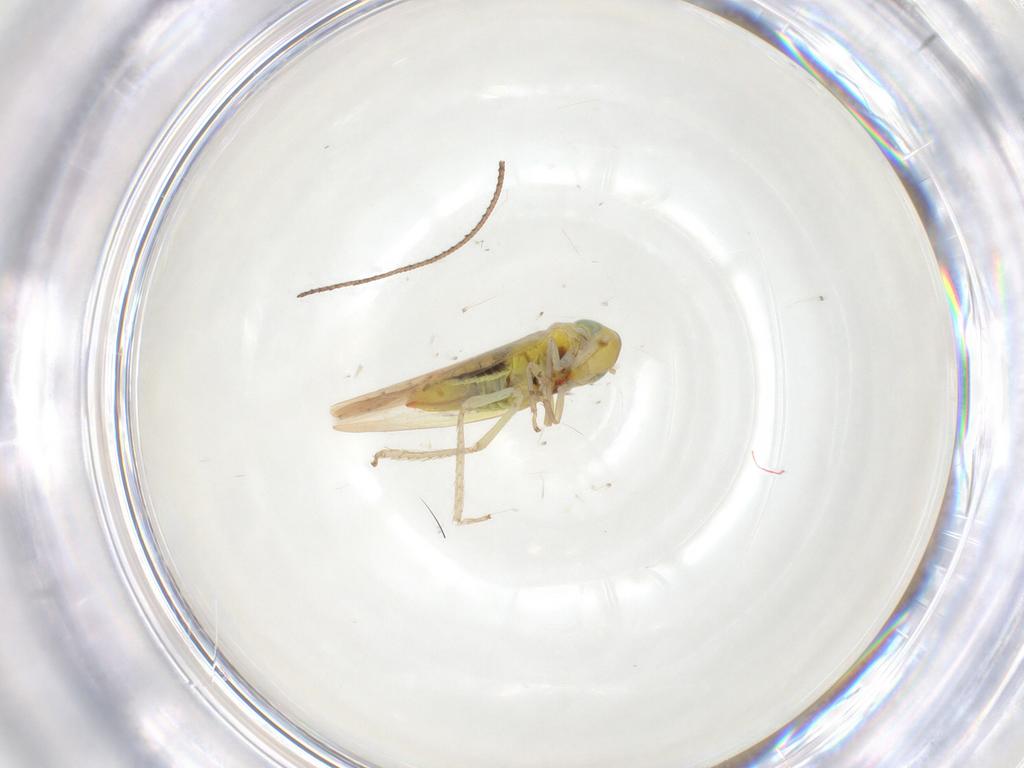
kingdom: Animalia
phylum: Arthropoda
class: Insecta
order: Hemiptera
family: Cicadellidae
